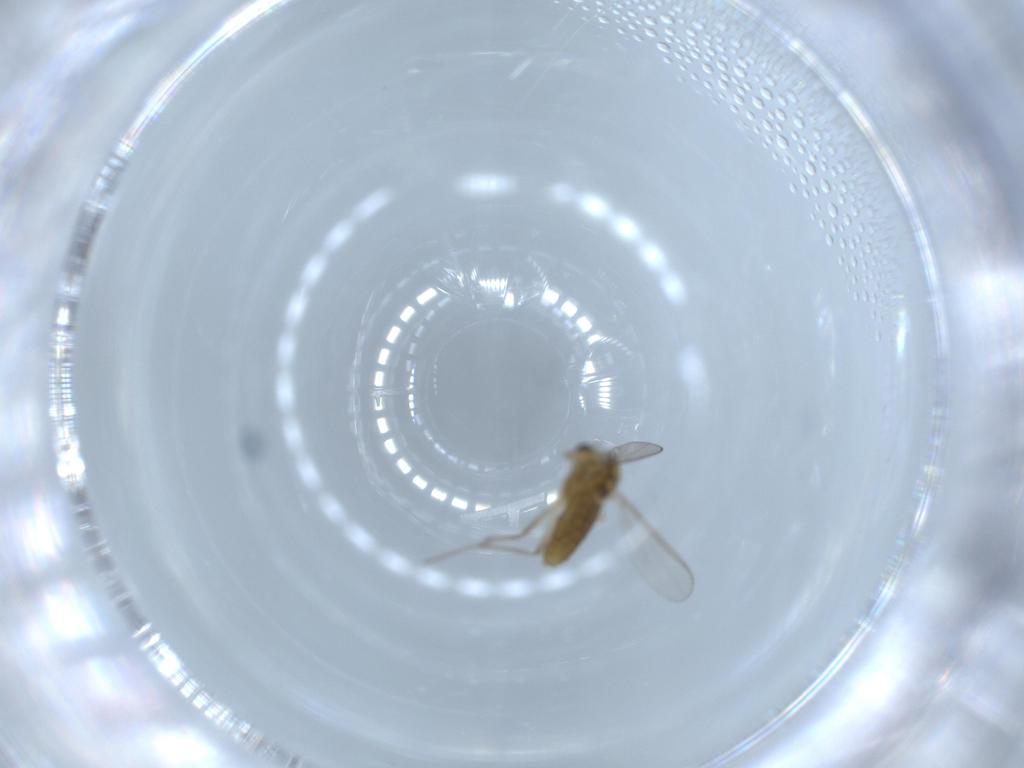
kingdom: Animalia
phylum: Arthropoda
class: Insecta
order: Diptera
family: Chironomidae
